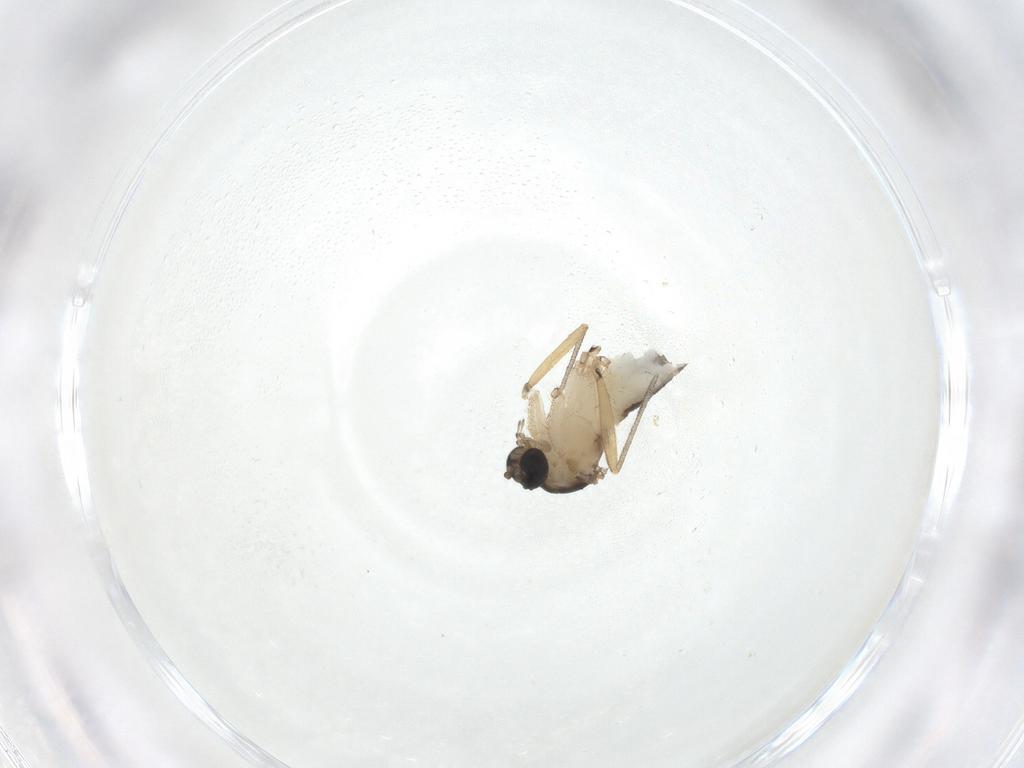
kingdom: Animalia
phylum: Arthropoda
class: Insecta
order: Diptera
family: Sciaridae
